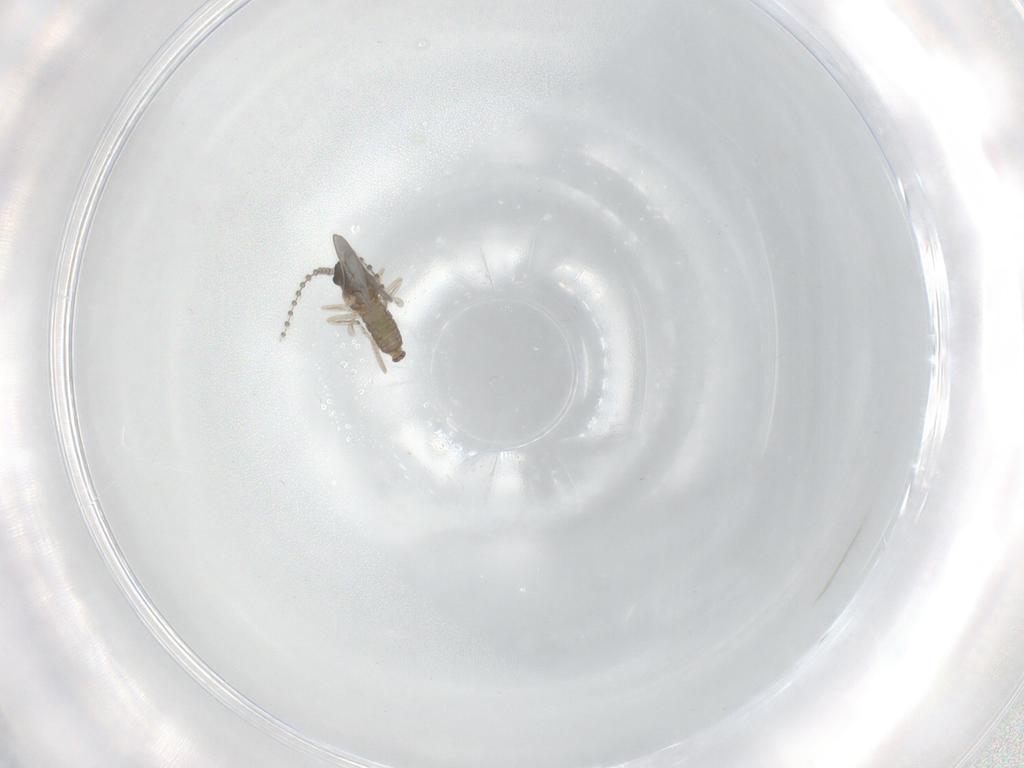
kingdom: Animalia
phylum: Arthropoda
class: Insecta
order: Diptera
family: Cecidomyiidae
